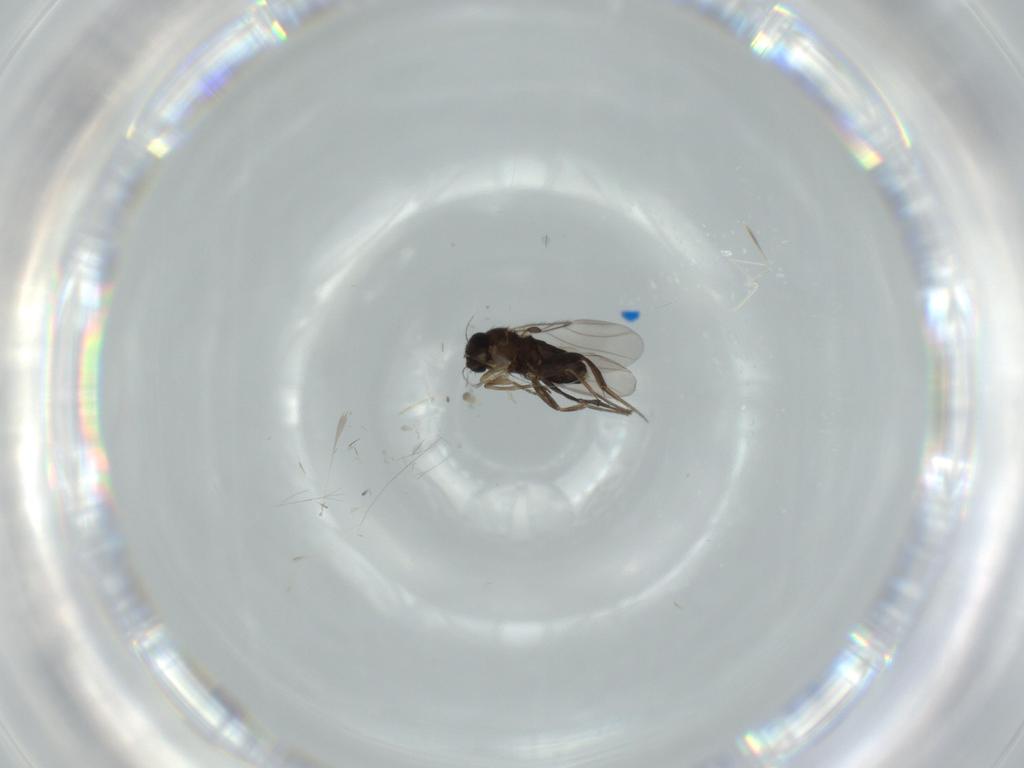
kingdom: Animalia
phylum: Arthropoda
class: Insecta
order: Diptera
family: Phoridae
